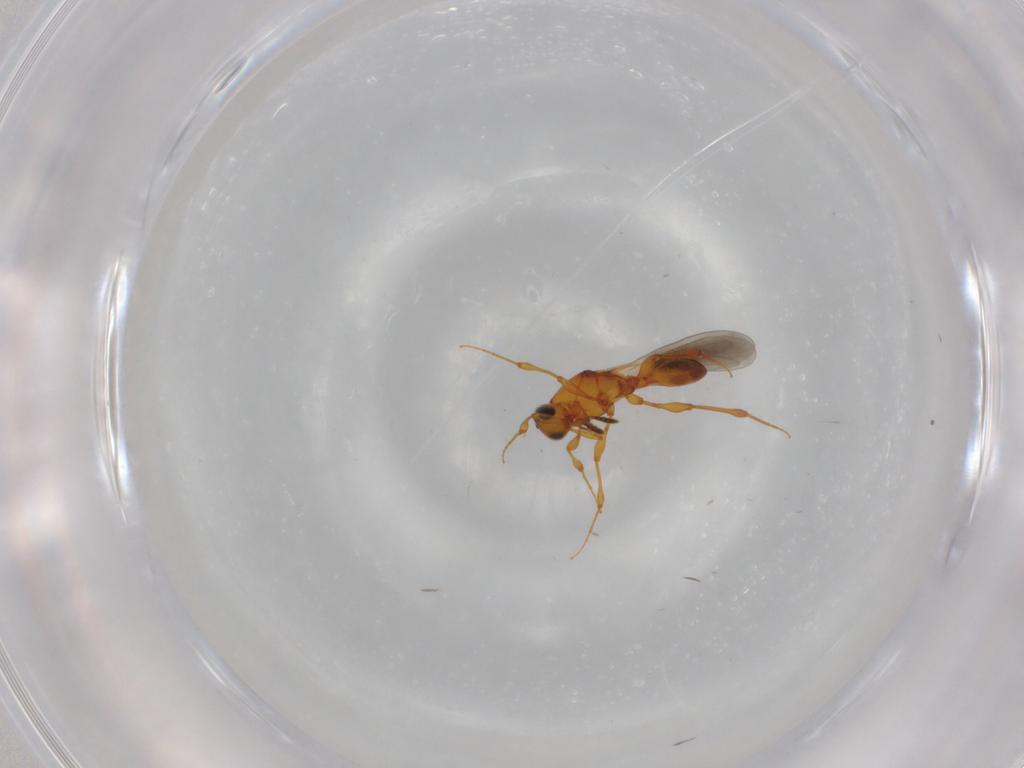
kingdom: Animalia
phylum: Arthropoda
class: Insecta
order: Hymenoptera
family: Platygastridae
